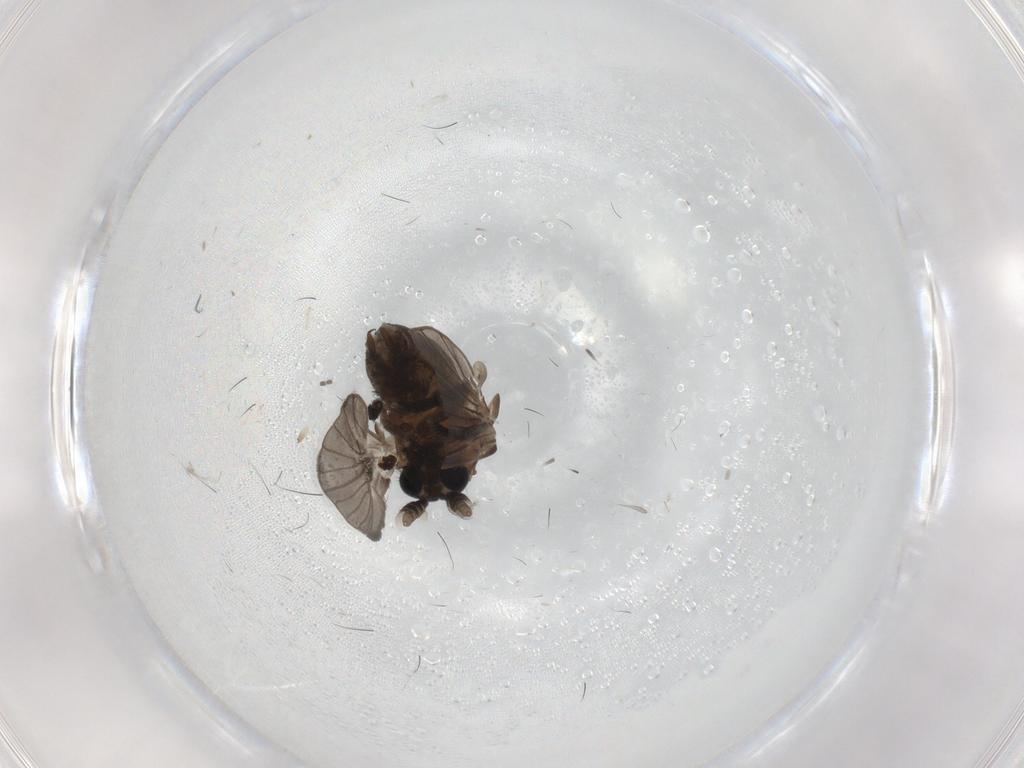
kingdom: Animalia
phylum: Arthropoda
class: Insecta
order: Diptera
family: Psychodidae
